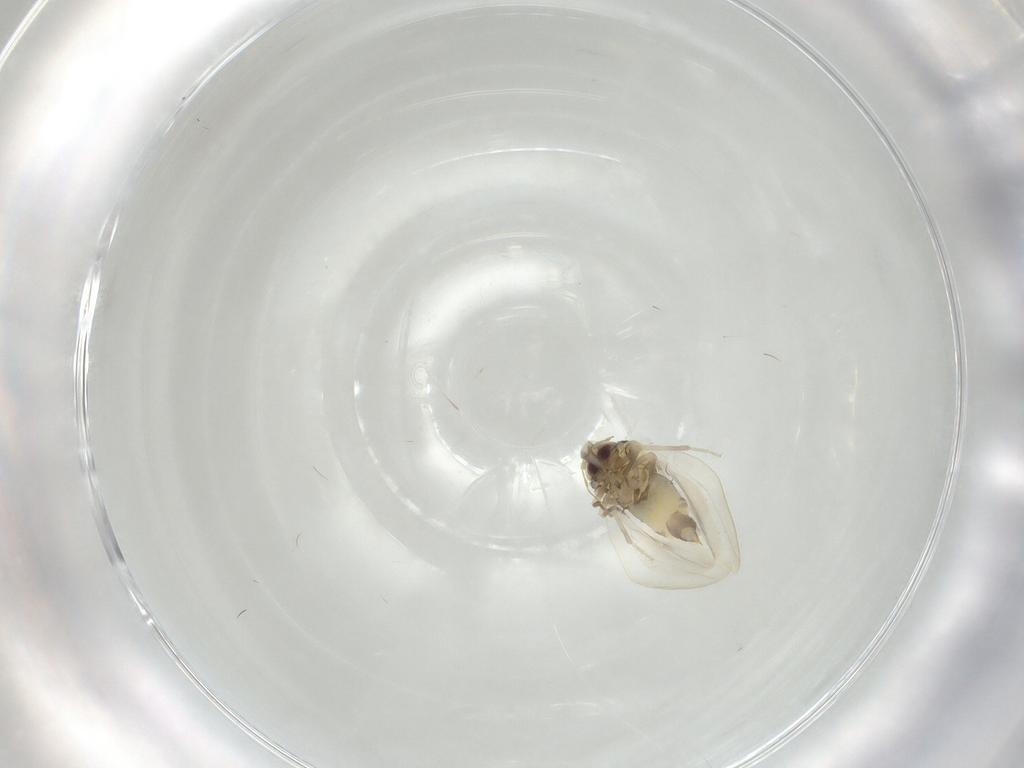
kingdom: Animalia
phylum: Arthropoda
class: Insecta
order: Hemiptera
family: Aleyrodidae
